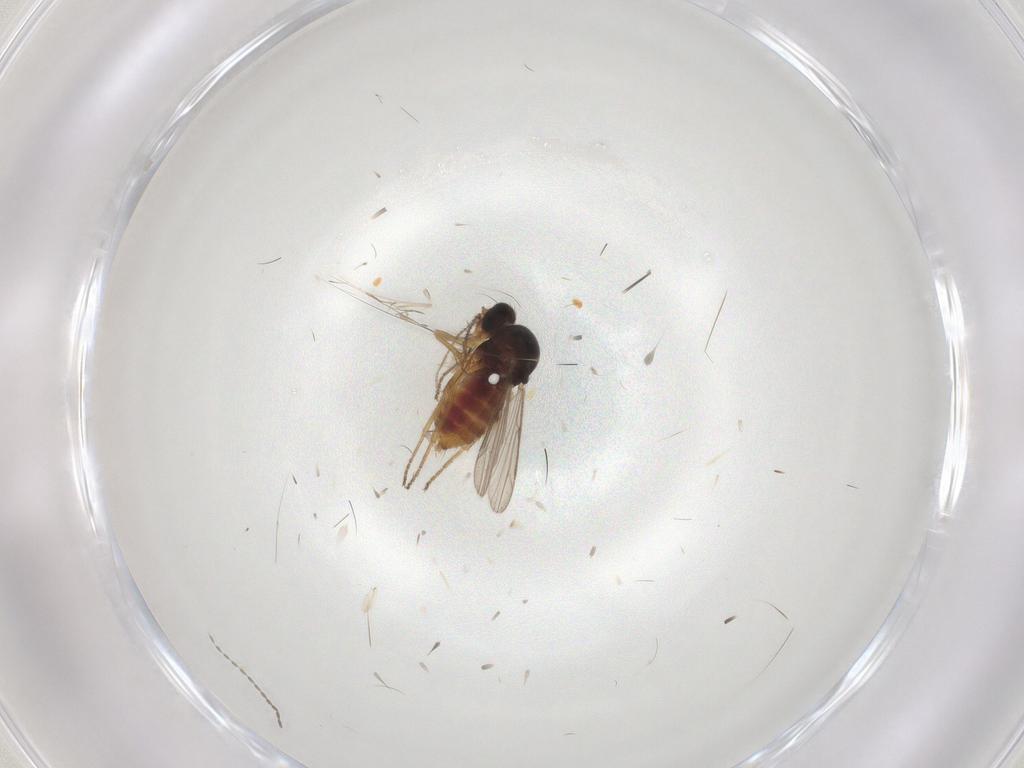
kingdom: Animalia
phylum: Arthropoda
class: Insecta
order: Diptera
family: Ceratopogonidae
